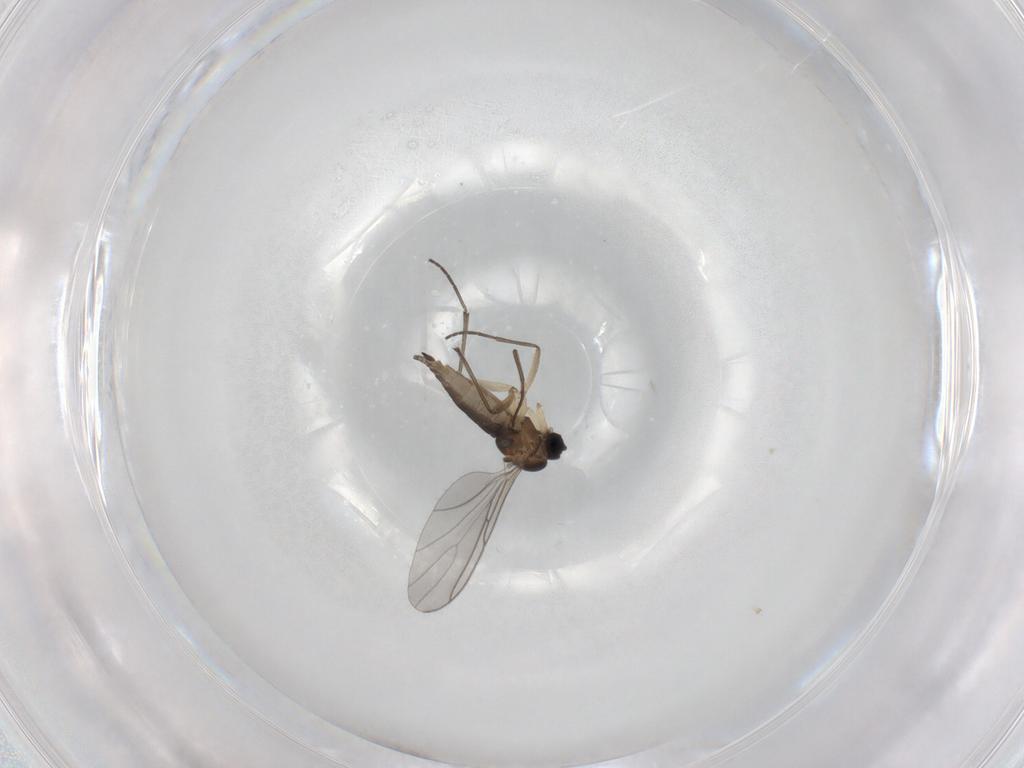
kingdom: Animalia
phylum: Arthropoda
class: Insecta
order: Diptera
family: Sciaridae
